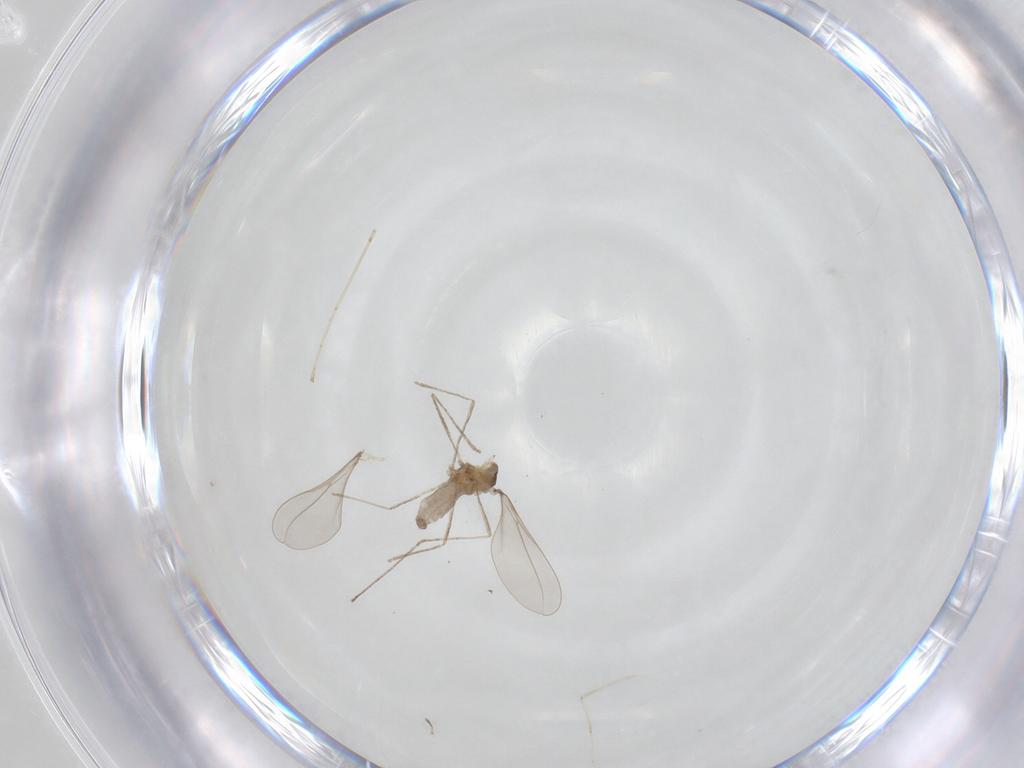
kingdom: Animalia
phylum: Arthropoda
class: Insecta
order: Diptera
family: Cecidomyiidae
